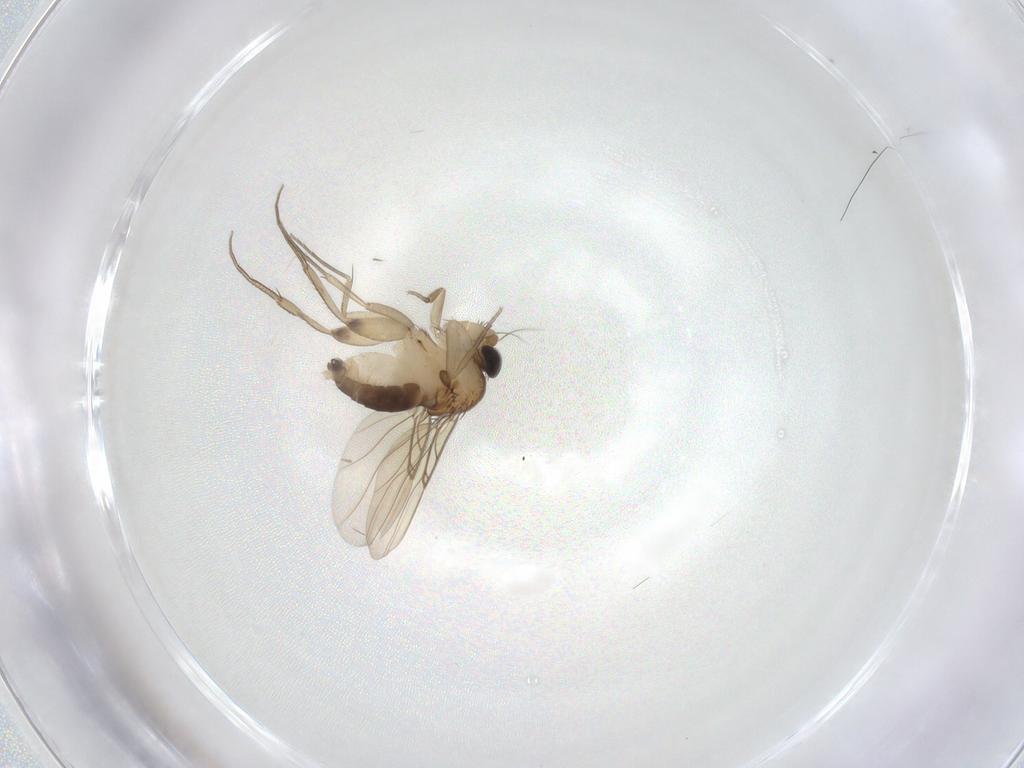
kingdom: Animalia
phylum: Arthropoda
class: Insecta
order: Diptera
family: Phoridae
